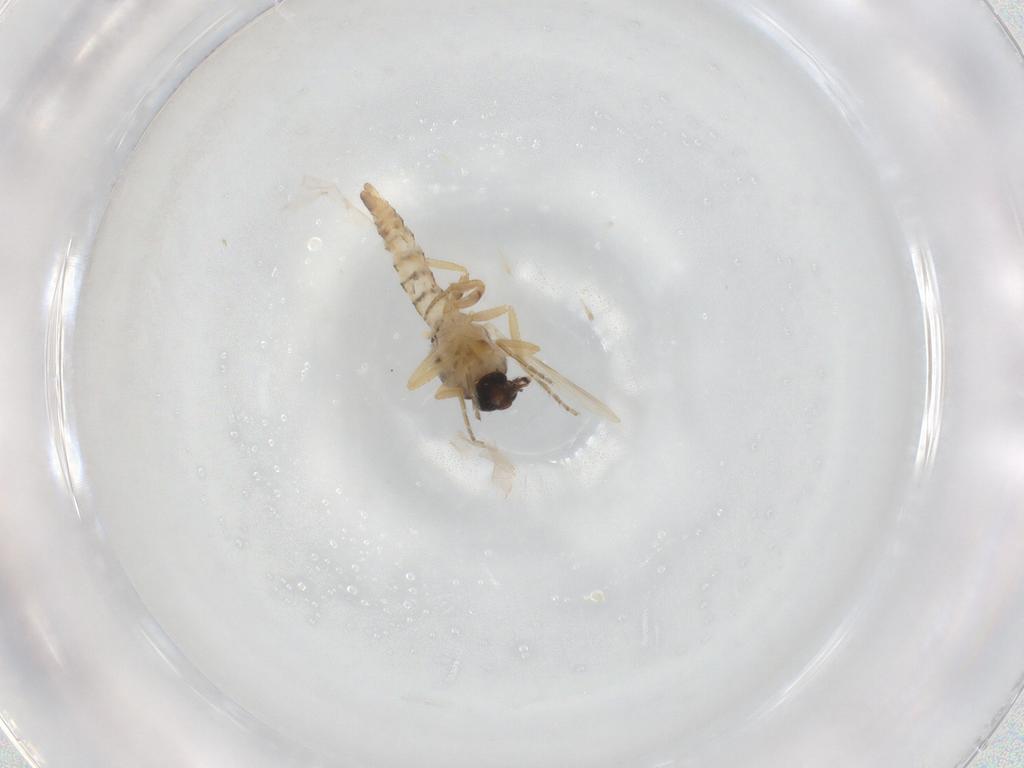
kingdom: Animalia
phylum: Arthropoda
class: Insecta
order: Diptera
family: Ceratopogonidae
